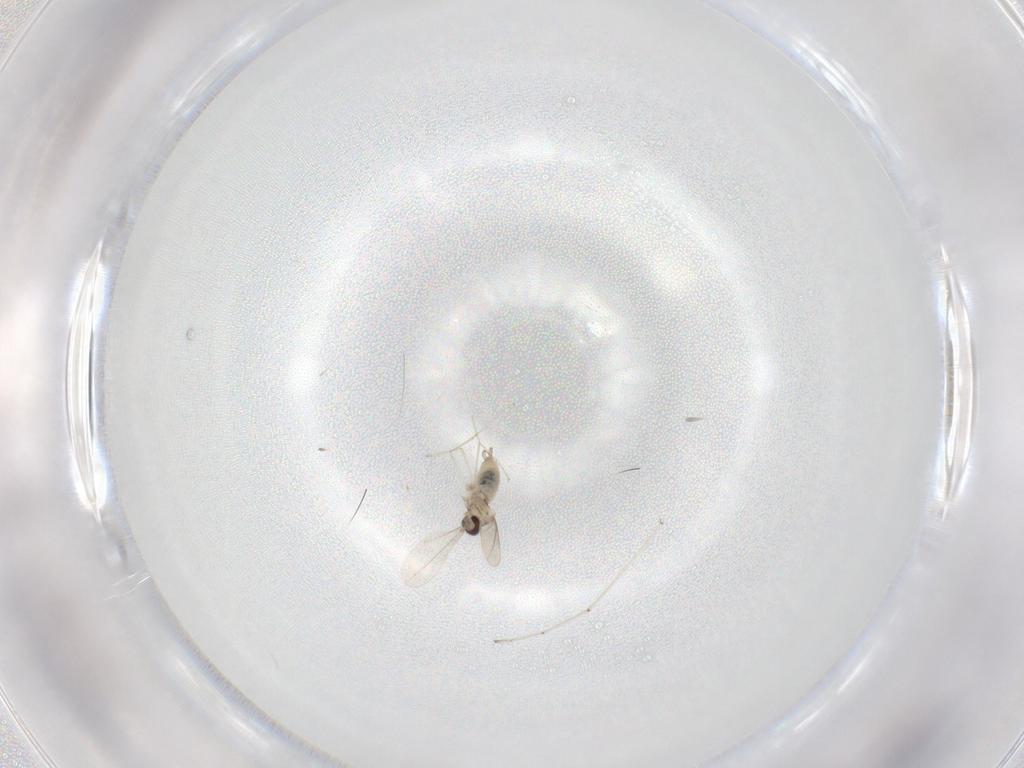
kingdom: Animalia
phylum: Arthropoda
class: Insecta
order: Diptera
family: Cecidomyiidae
